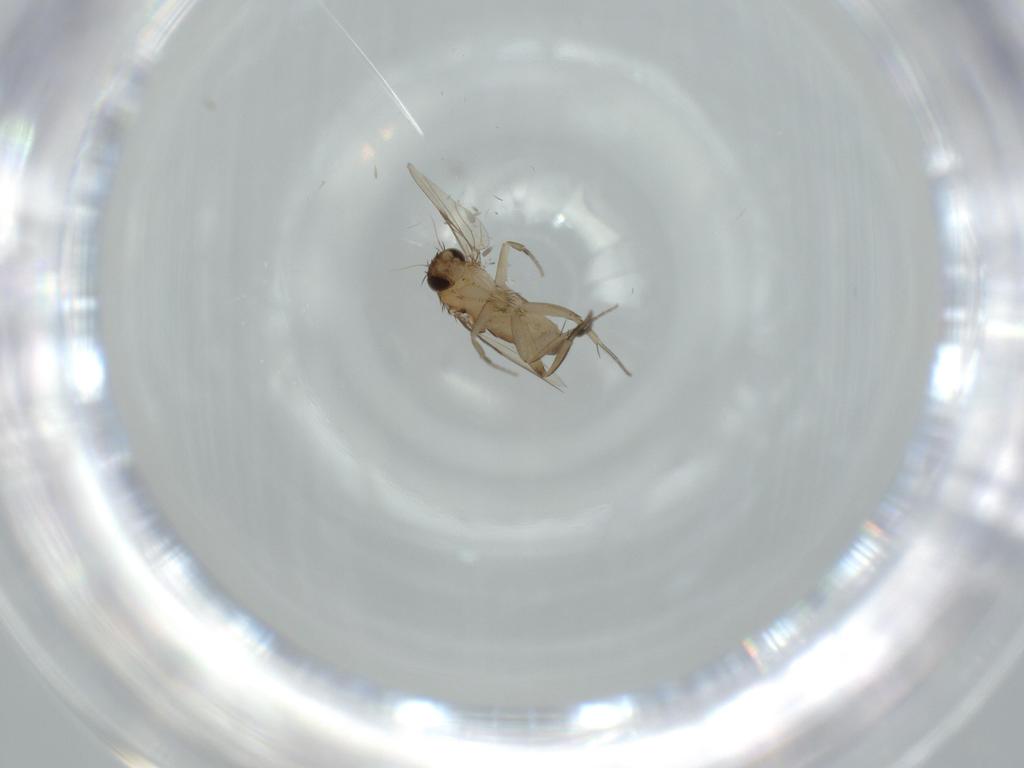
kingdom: Animalia
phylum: Arthropoda
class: Insecta
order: Diptera
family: Phoridae
